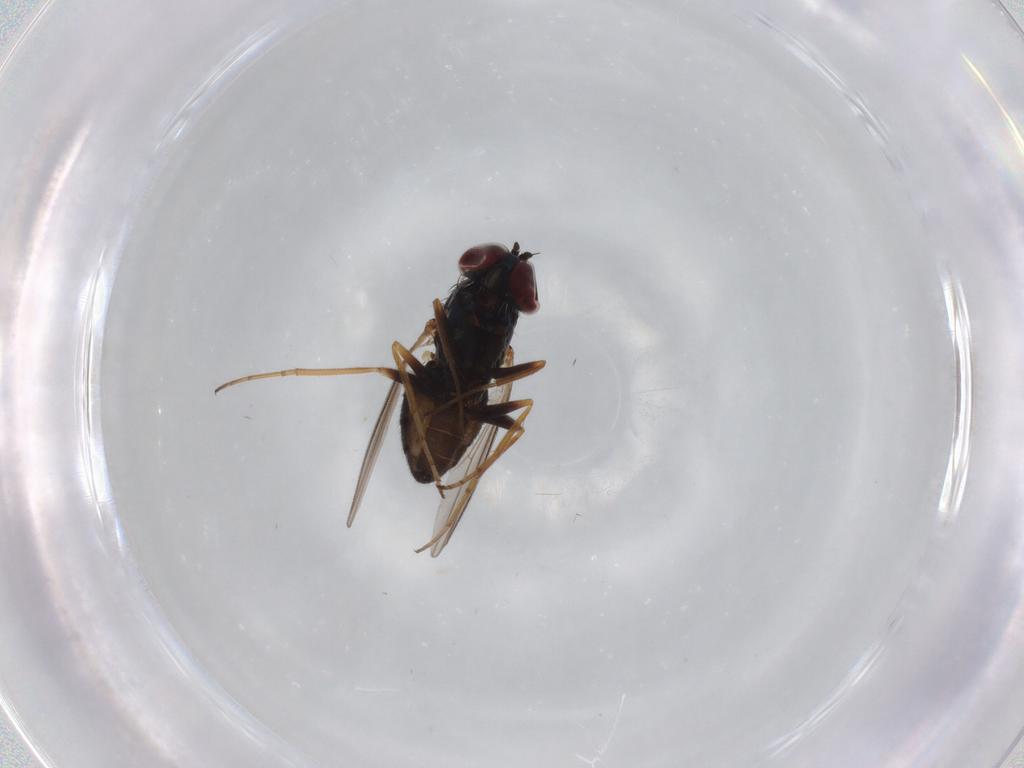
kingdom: Animalia
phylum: Arthropoda
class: Insecta
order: Diptera
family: Dolichopodidae
